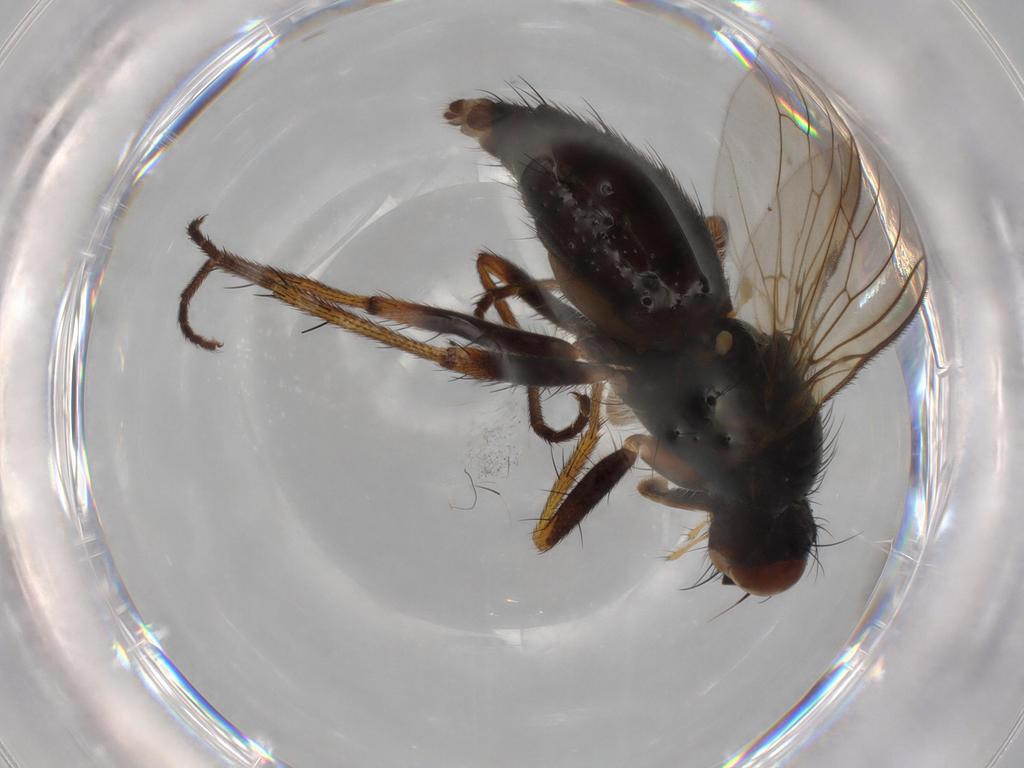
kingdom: Animalia
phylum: Arthropoda
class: Insecta
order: Diptera
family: Scathophagidae
